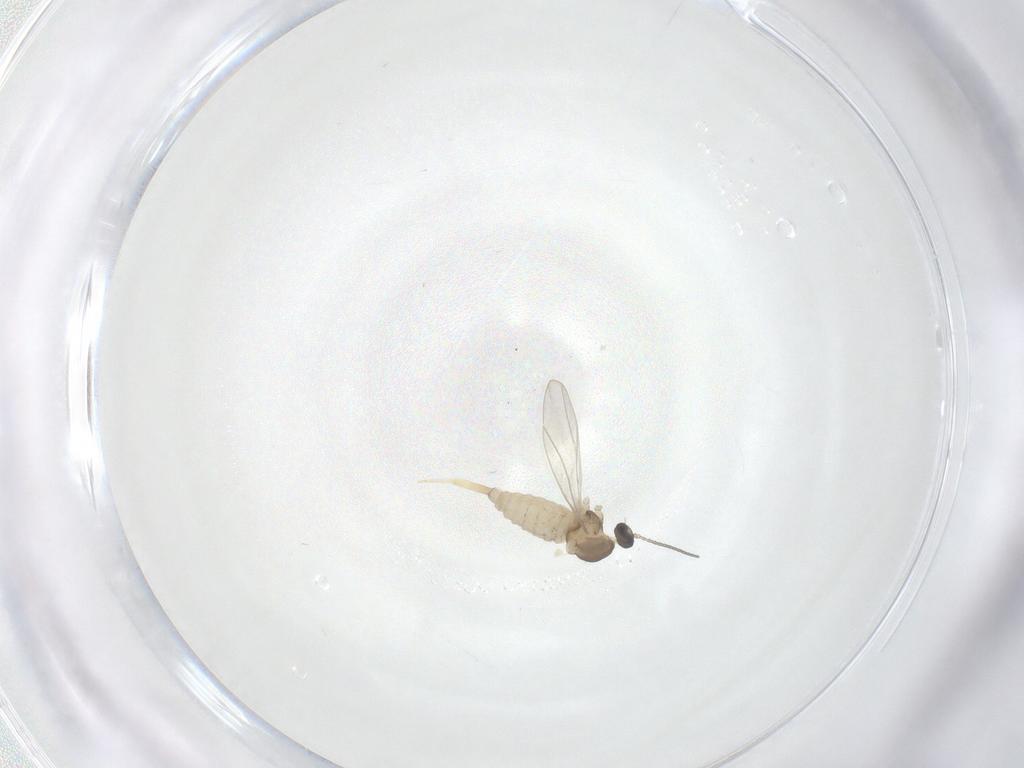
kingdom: Animalia
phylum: Arthropoda
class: Insecta
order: Diptera
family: Cecidomyiidae
